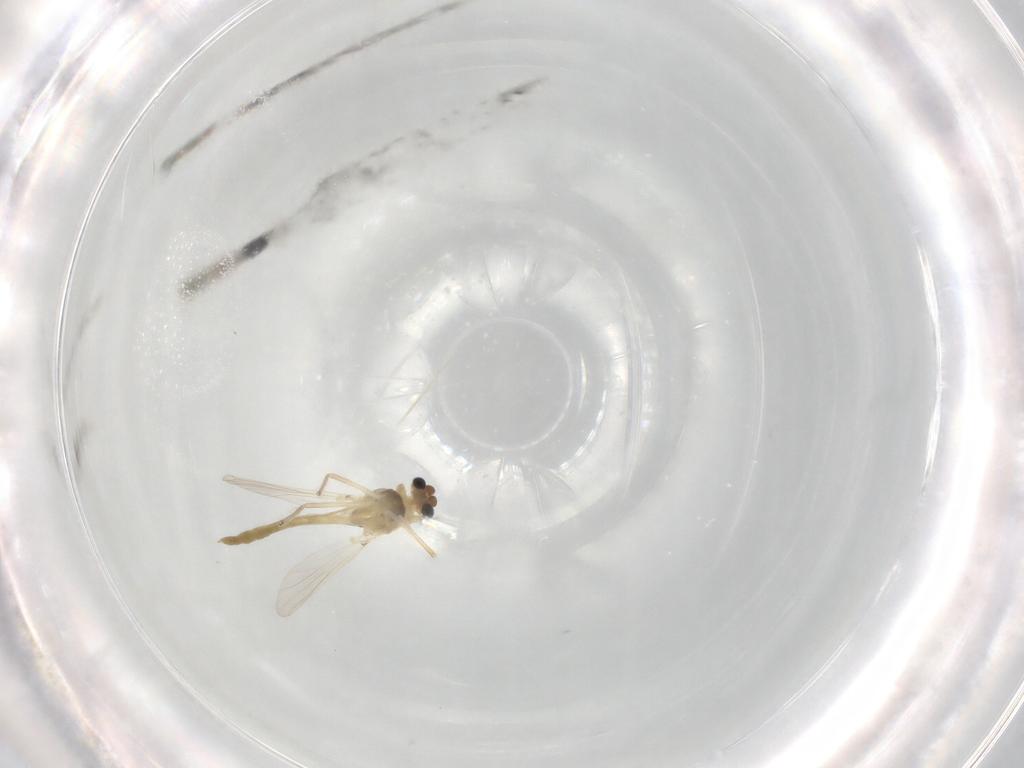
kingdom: Animalia
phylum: Arthropoda
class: Insecta
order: Diptera
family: Chironomidae
